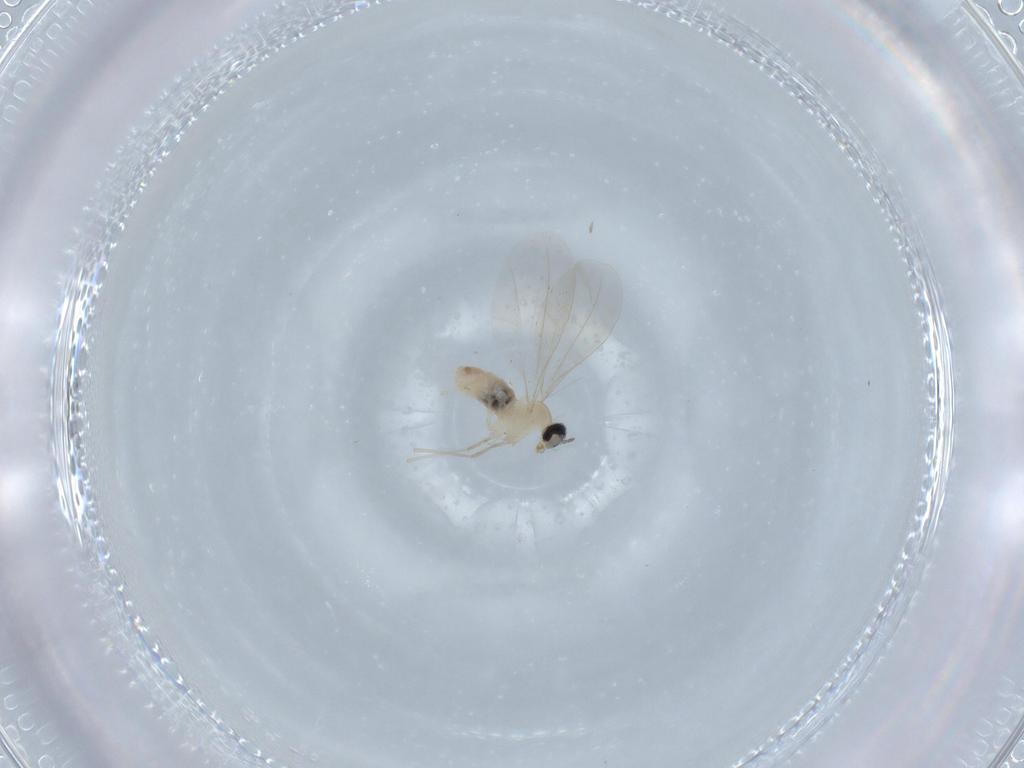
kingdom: Animalia
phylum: Arthropoda
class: Insecta
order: Diptera
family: Cecidomyiidae
